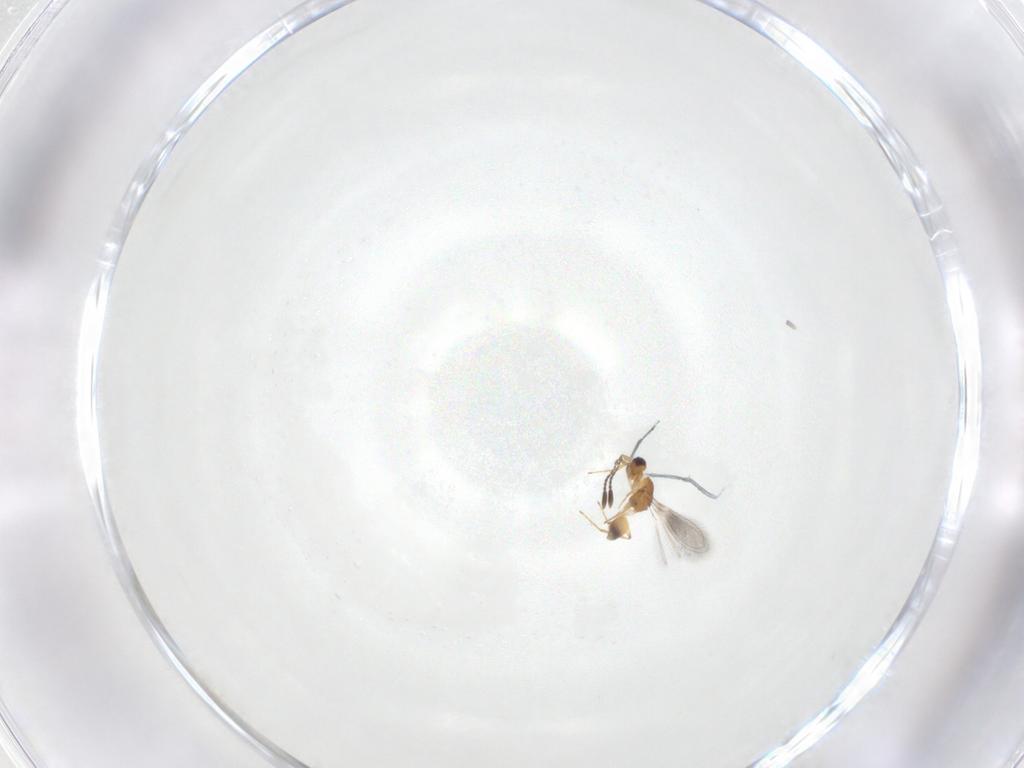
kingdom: Animalia
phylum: Arthropoda
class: Insecta
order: Hymenoptera
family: Mymaridae
